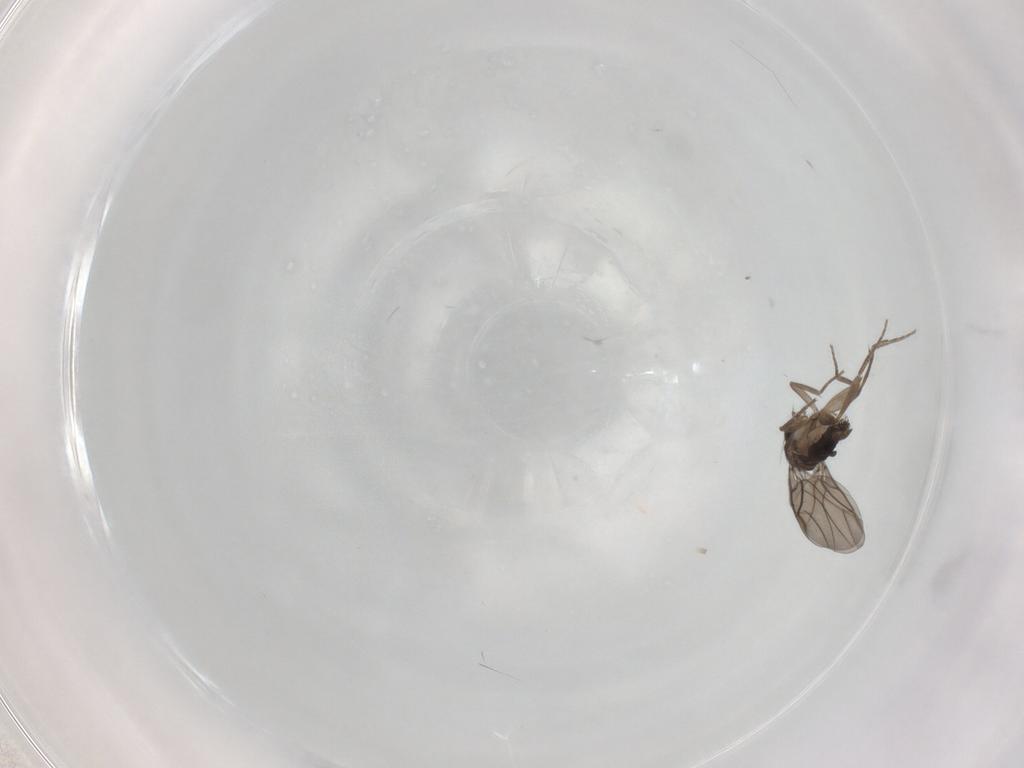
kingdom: Animalia
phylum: Arthropoda
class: Insecta
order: Diptera
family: Phoridae
